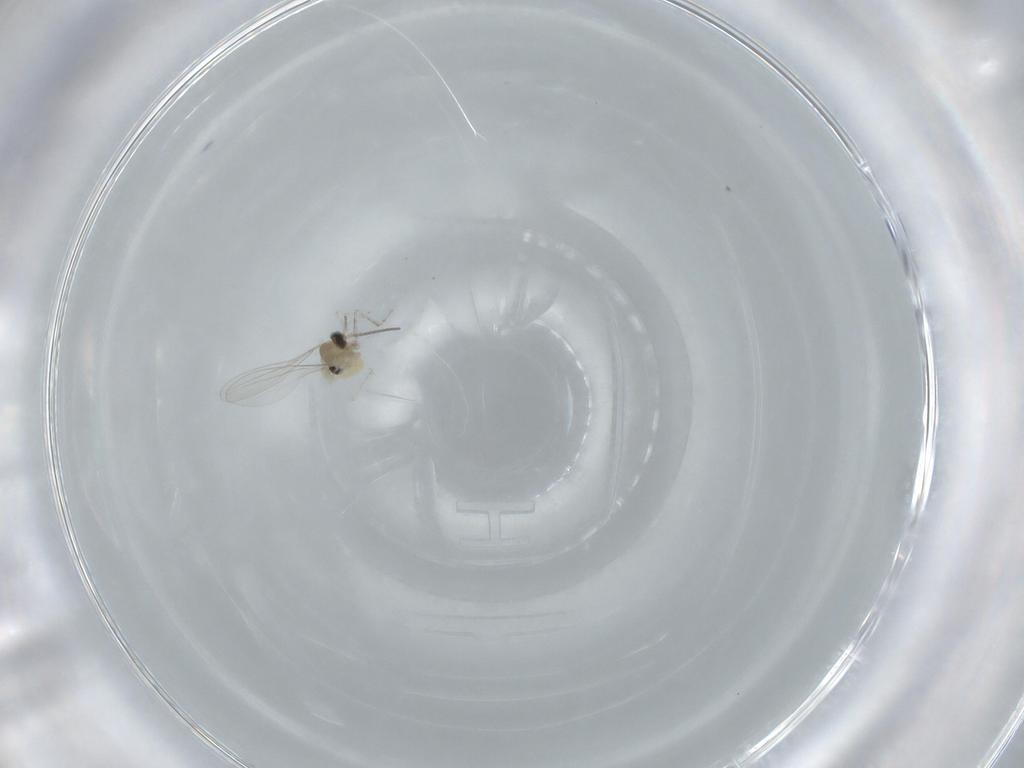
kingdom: Animalia
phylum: Arthropoda
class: Insecta
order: Diptera
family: Cecidomyiidae
